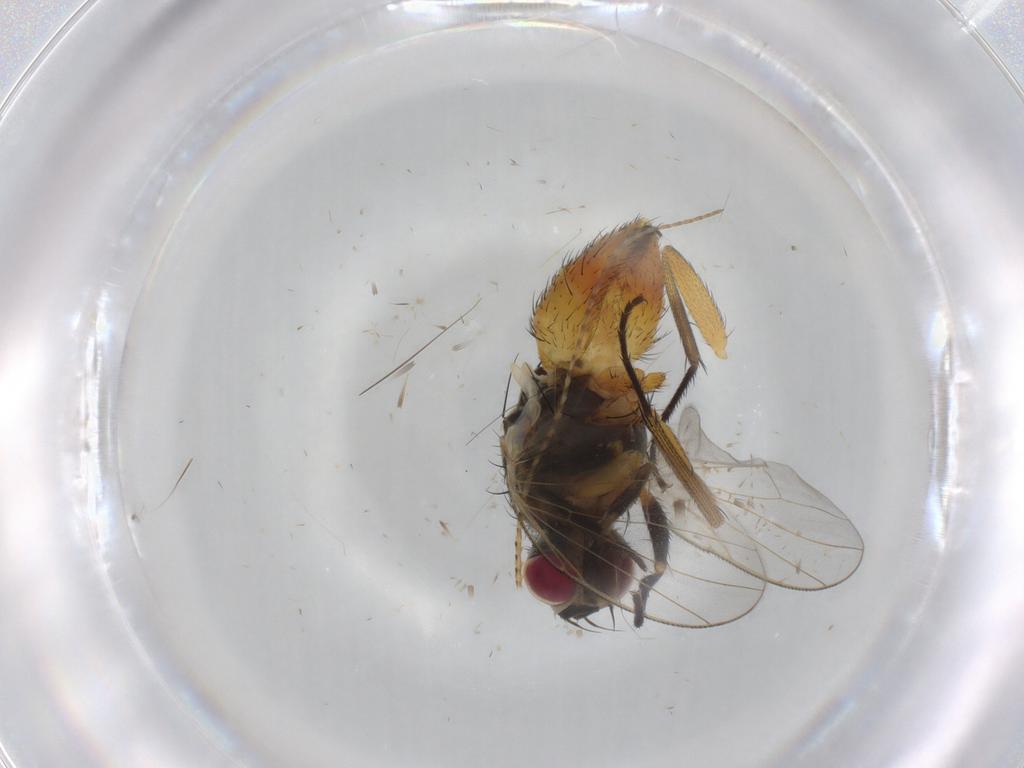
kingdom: Animalia
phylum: Arthropoda
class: Insecta
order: Diptera
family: Muscidae
